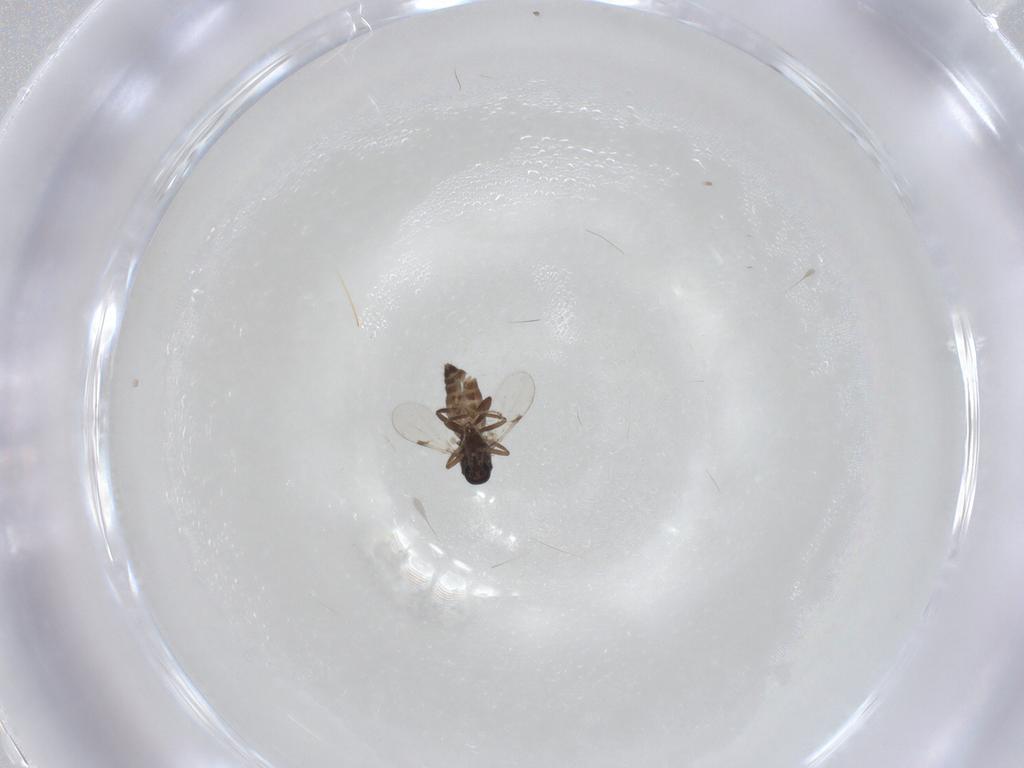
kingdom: Animalia
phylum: Arthropoda
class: Insecta
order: Diptera
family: Ceratopogonidae
